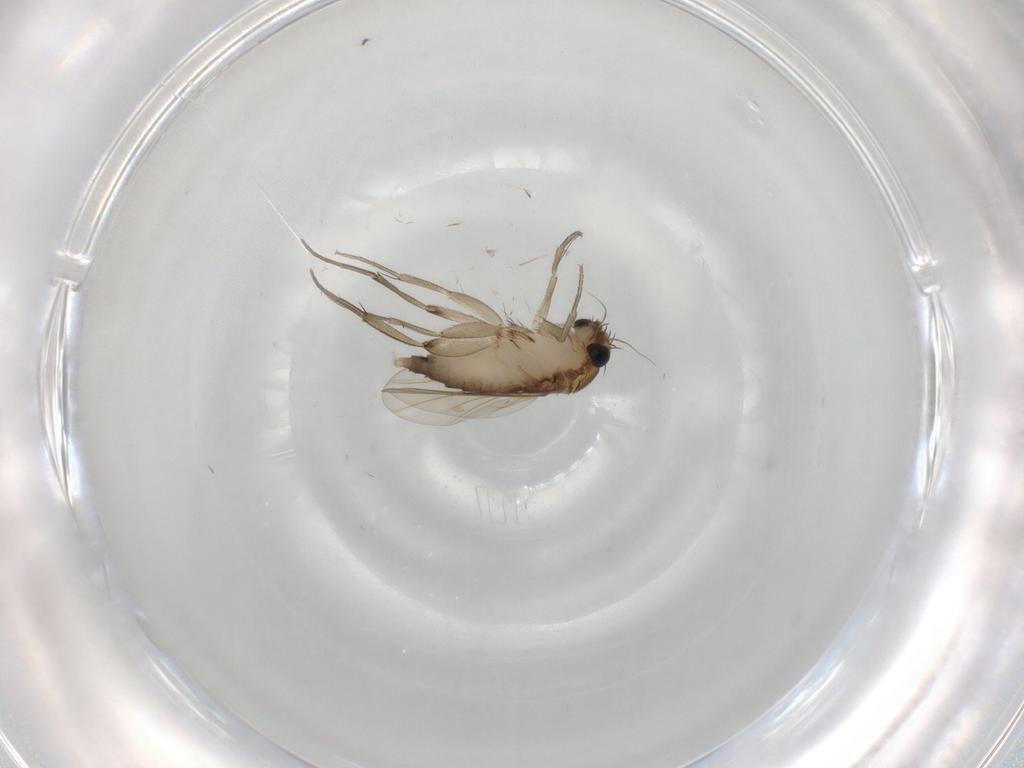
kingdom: Animalia
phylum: Arthropoda
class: Insecta
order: Diptera
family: Phoridae
